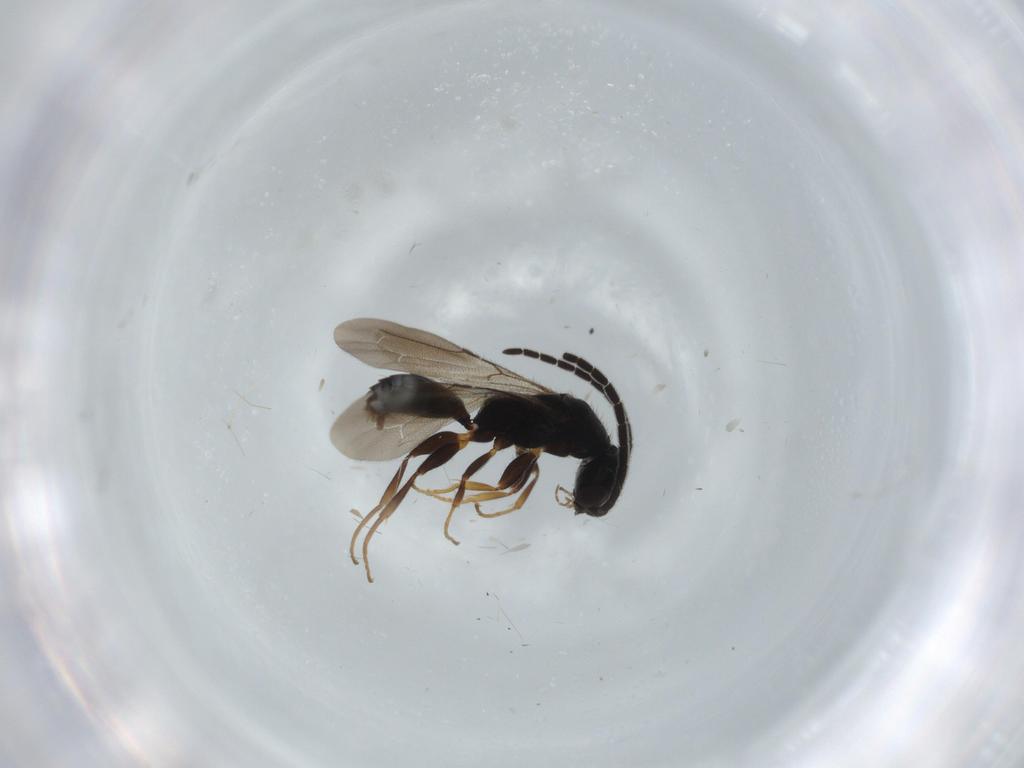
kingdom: Animalia
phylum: Arthropoda
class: Insecta
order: Hymenoptera
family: Bethylidae
